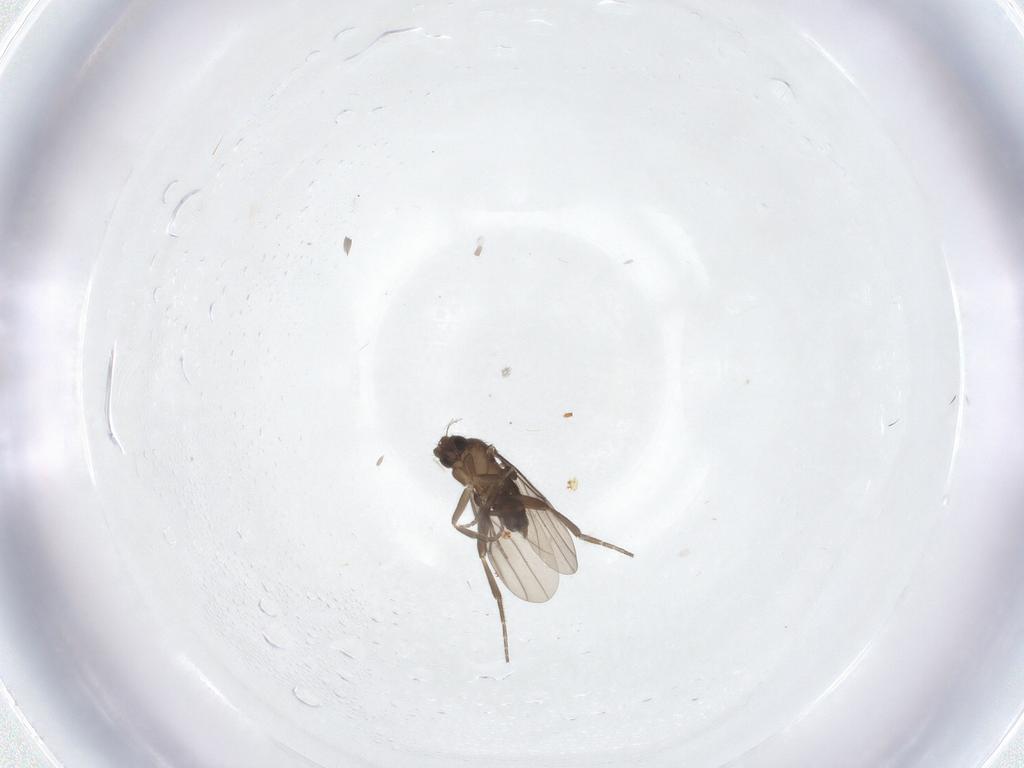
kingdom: Animalia
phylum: Arthropoda
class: Insecta
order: Diptera
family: Phoridae
